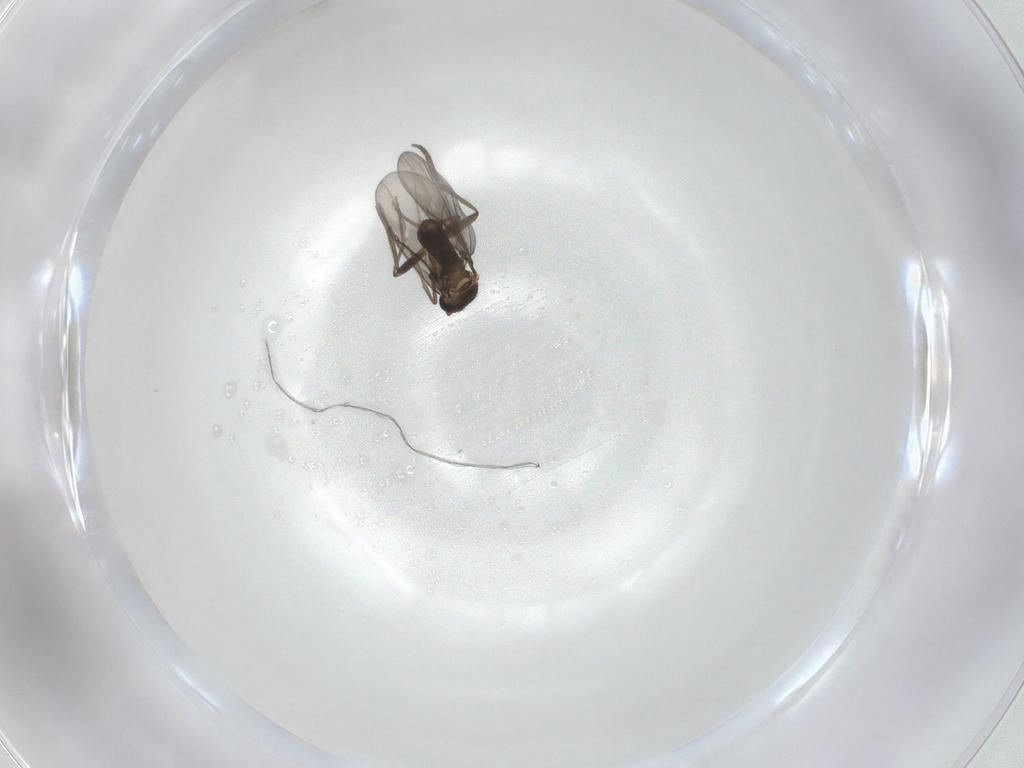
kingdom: Animalia
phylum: Arthropoda
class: Insecta
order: Diptera
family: Phoridae
